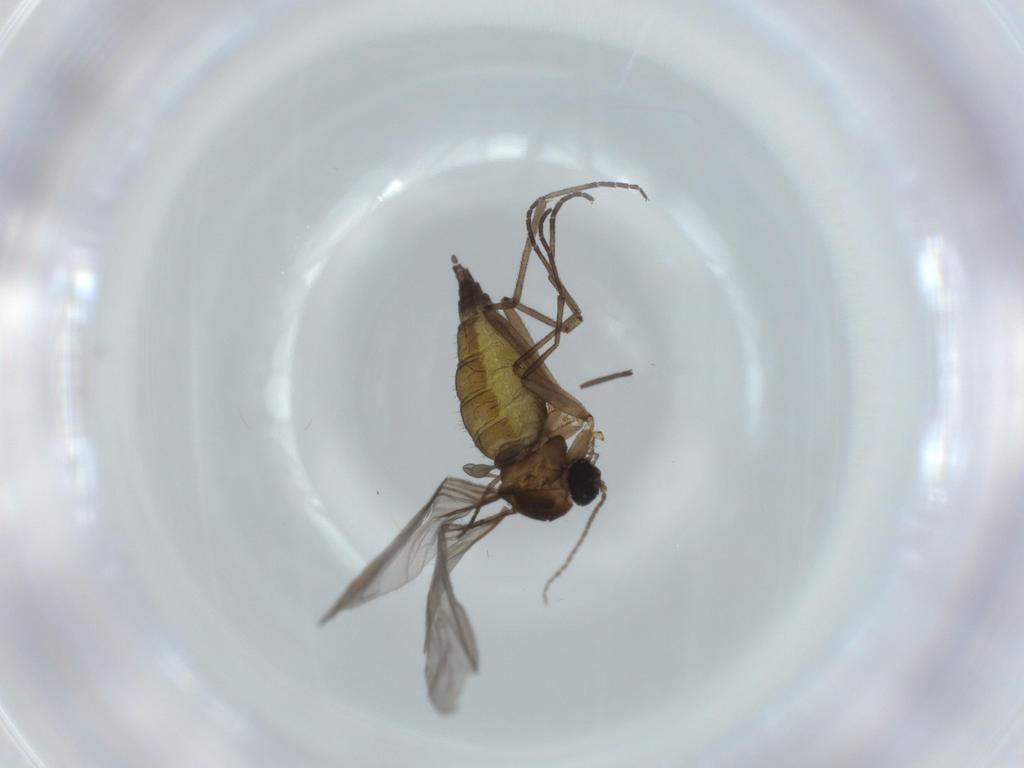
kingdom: Animalia
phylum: Arthropoda
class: Insecta
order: Diptera
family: Sciaridae
